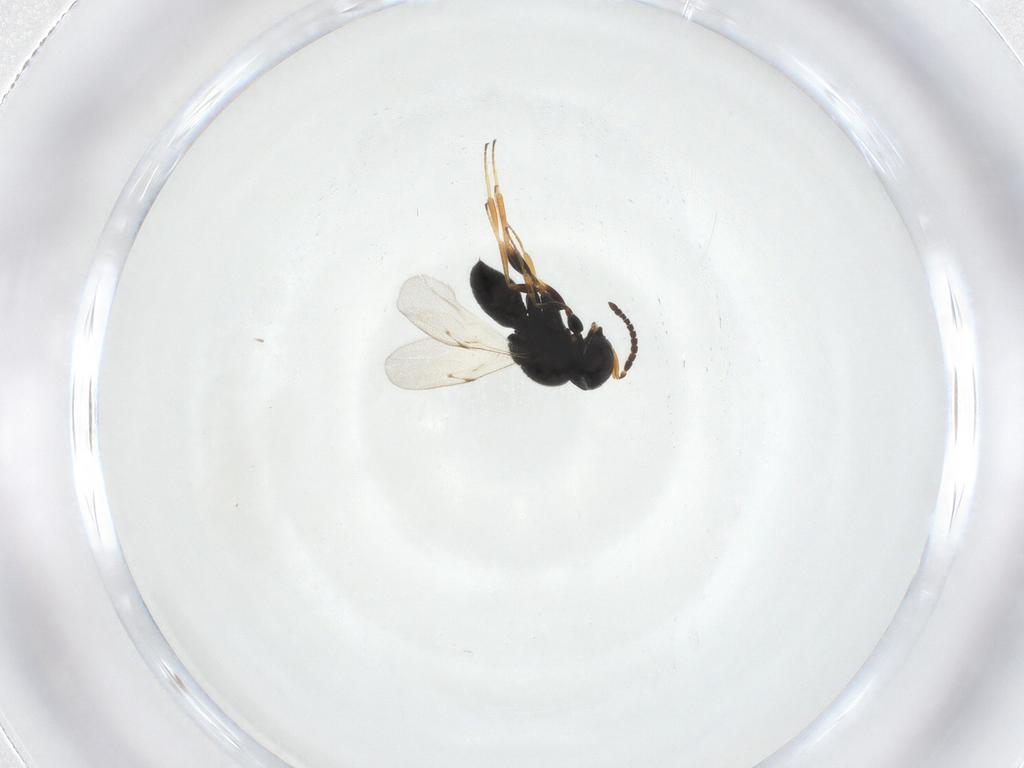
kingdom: Animalia
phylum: Arthropoda
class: Insecta
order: Hymenoptera
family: Scelionidae
